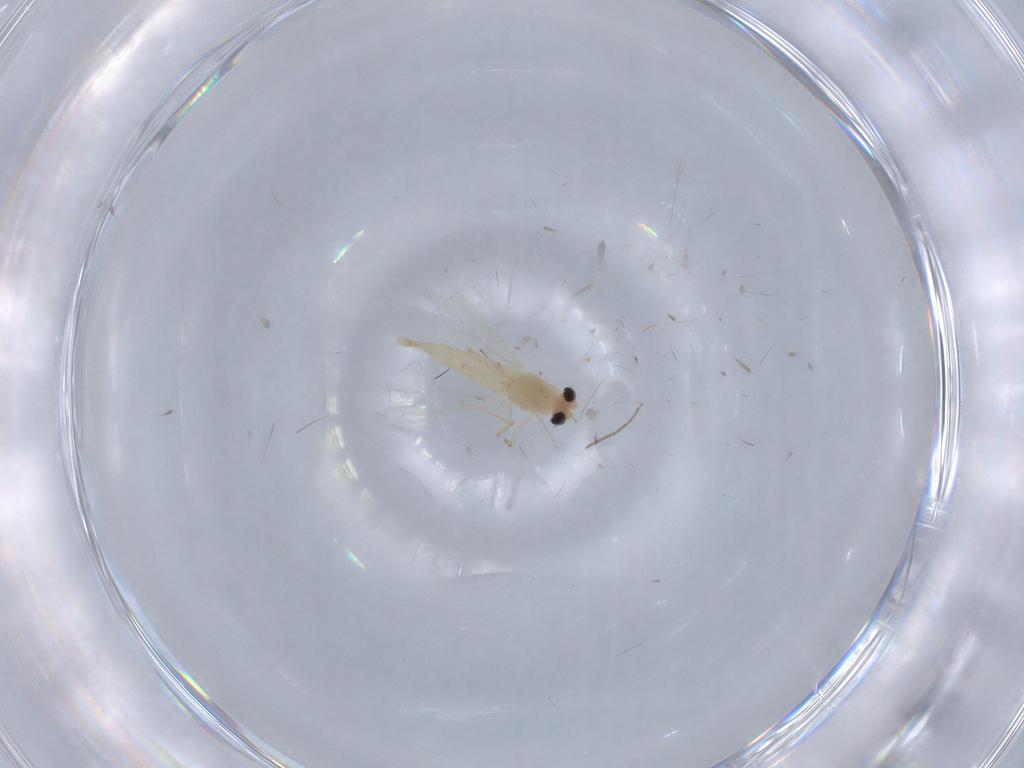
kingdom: Animalia
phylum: Arthropoda
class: Insecta
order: Diptera
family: Chironomidae
